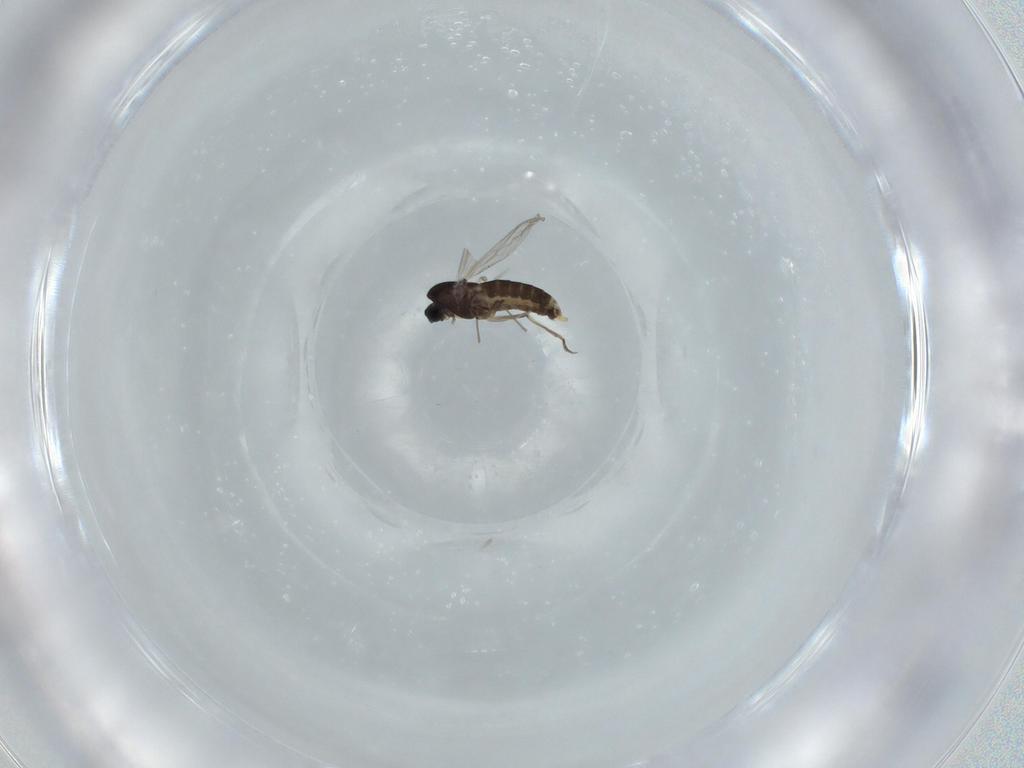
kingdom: Animalia
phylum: Arthropoda
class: Insecta
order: Diptera
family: Chironomidae
